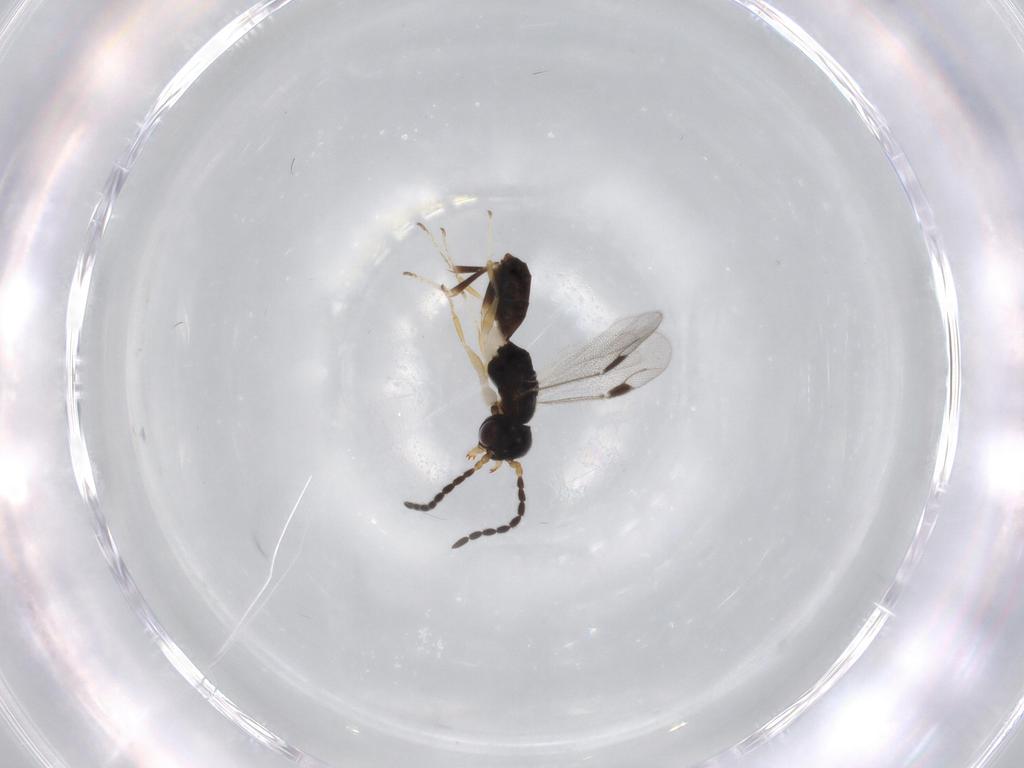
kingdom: Animalia
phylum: Arthropoda
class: Insecta
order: Hymenoptera
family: Dryinidae
